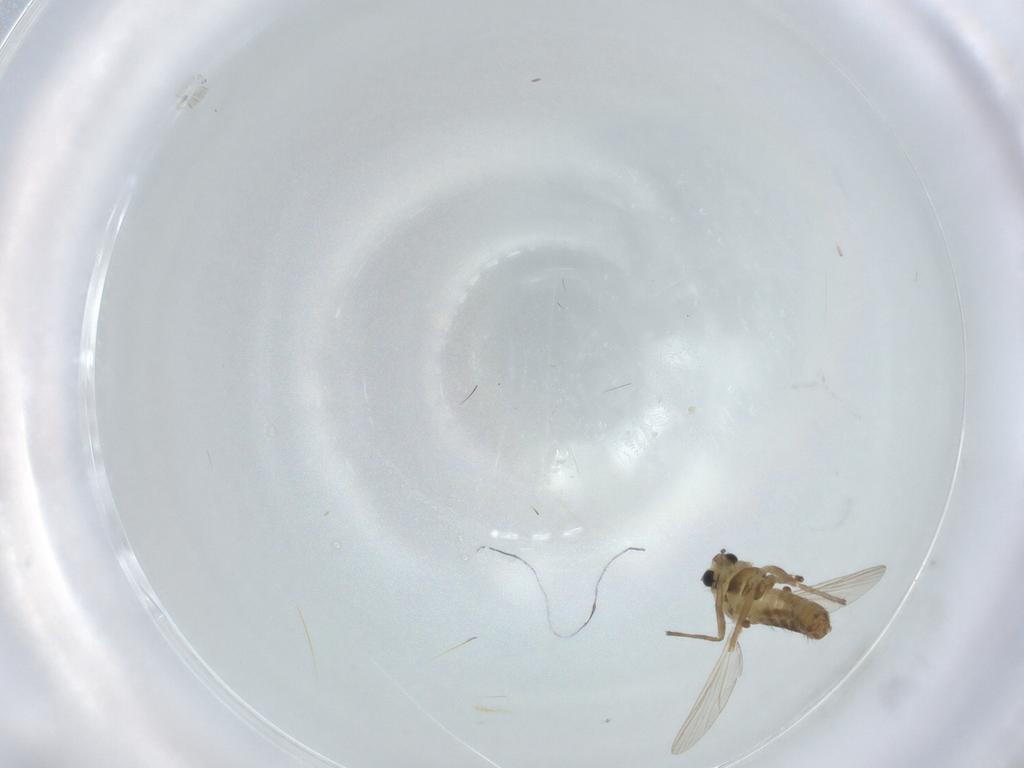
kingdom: Animalia
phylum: Arthropoda
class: Insecta
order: Diptera
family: Chironomidae
